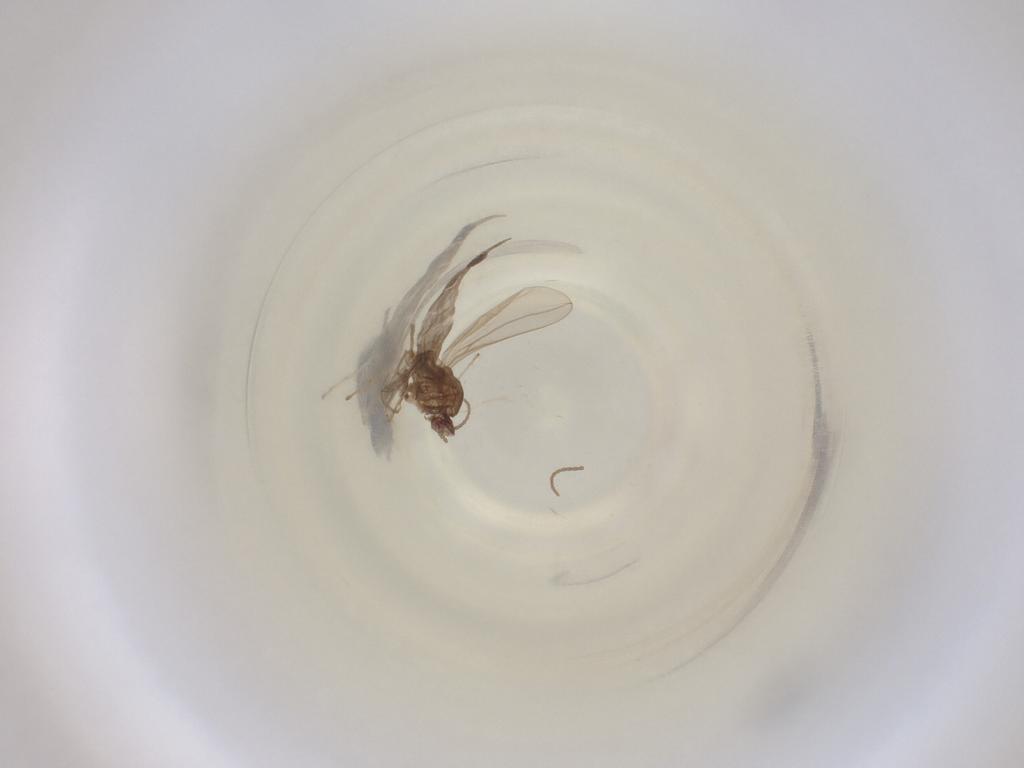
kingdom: Animalia
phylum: Arthropoda
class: Insecta
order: Diptera
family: Cecidomyiidae
